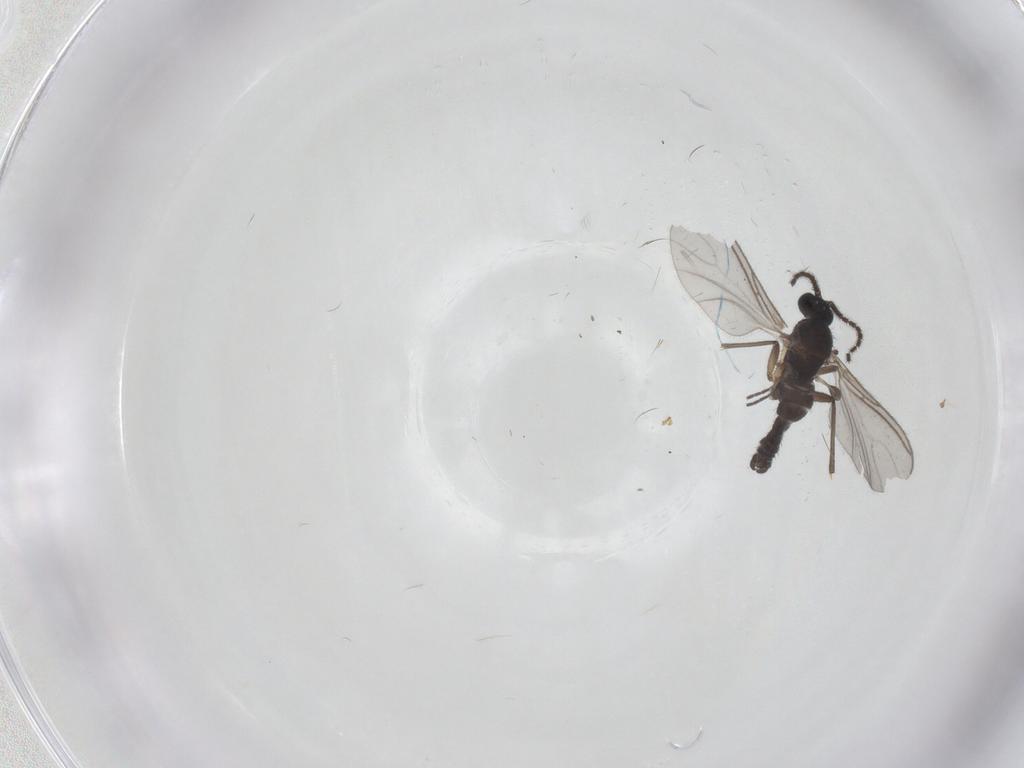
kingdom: Animalia
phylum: Arthropoda
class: Insecta
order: Diptera
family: Sciaridae
